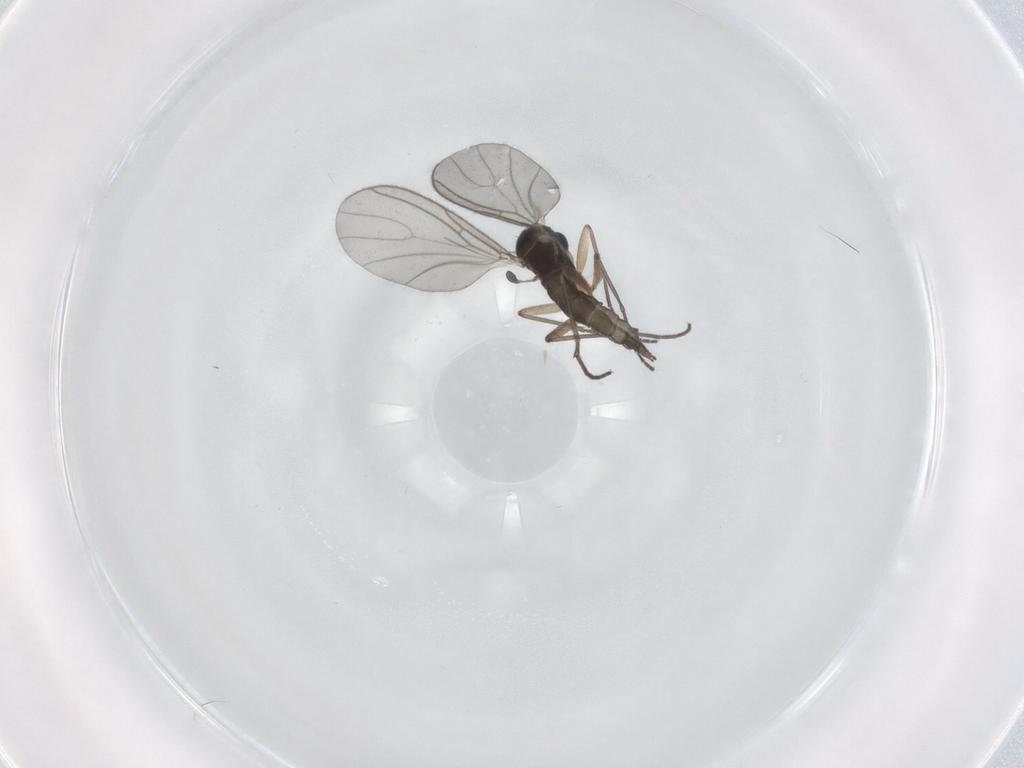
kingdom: Animalia
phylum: Arthropoda
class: Insecta
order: Diptera
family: Sciaridae
